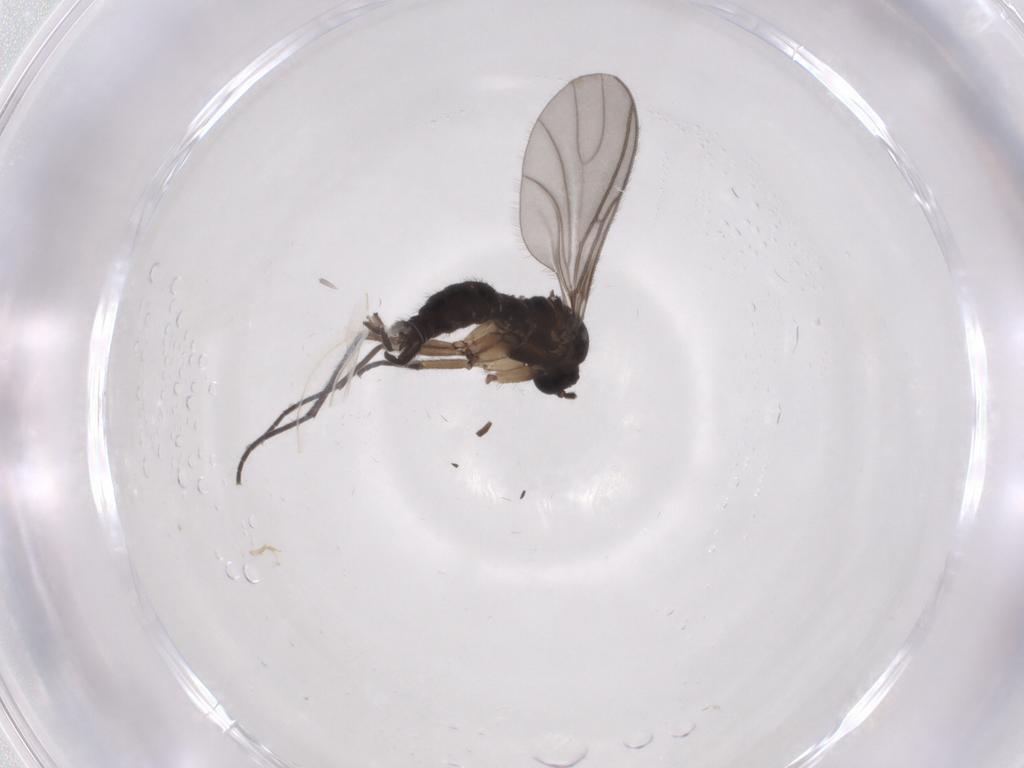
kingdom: Animalia
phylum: Arthropoda
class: Insecta
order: Diptera
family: Sciaridae
